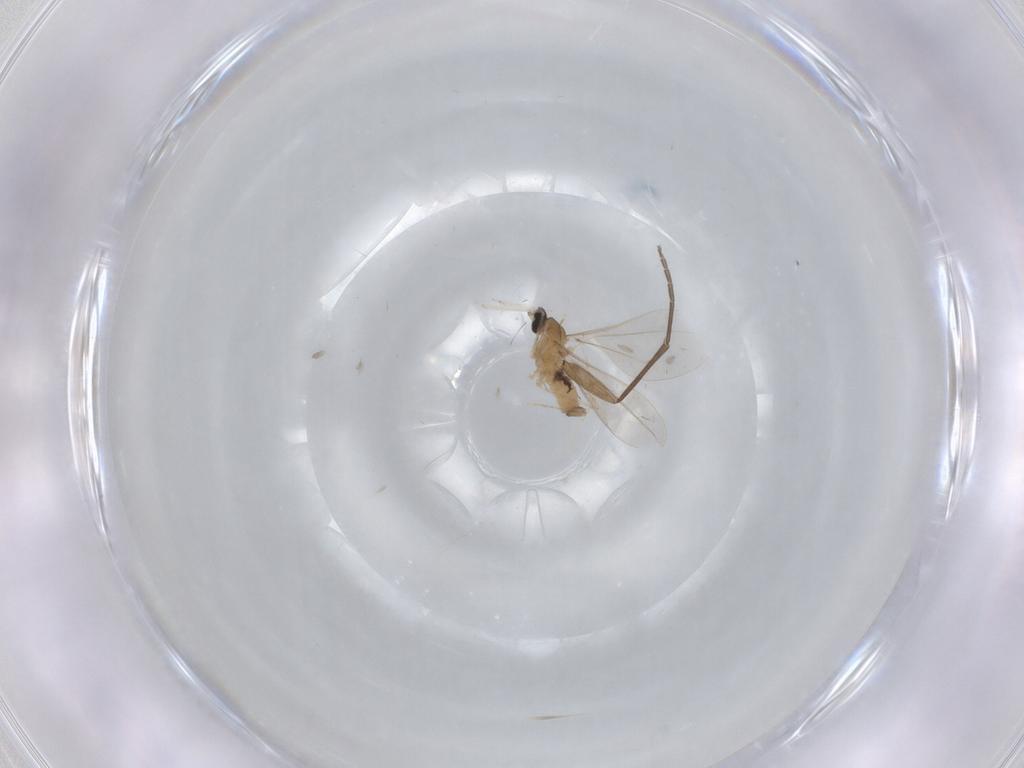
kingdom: Animalia
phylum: Arthropoda
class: Insecta
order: Diptera
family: Cecidomyiidae
